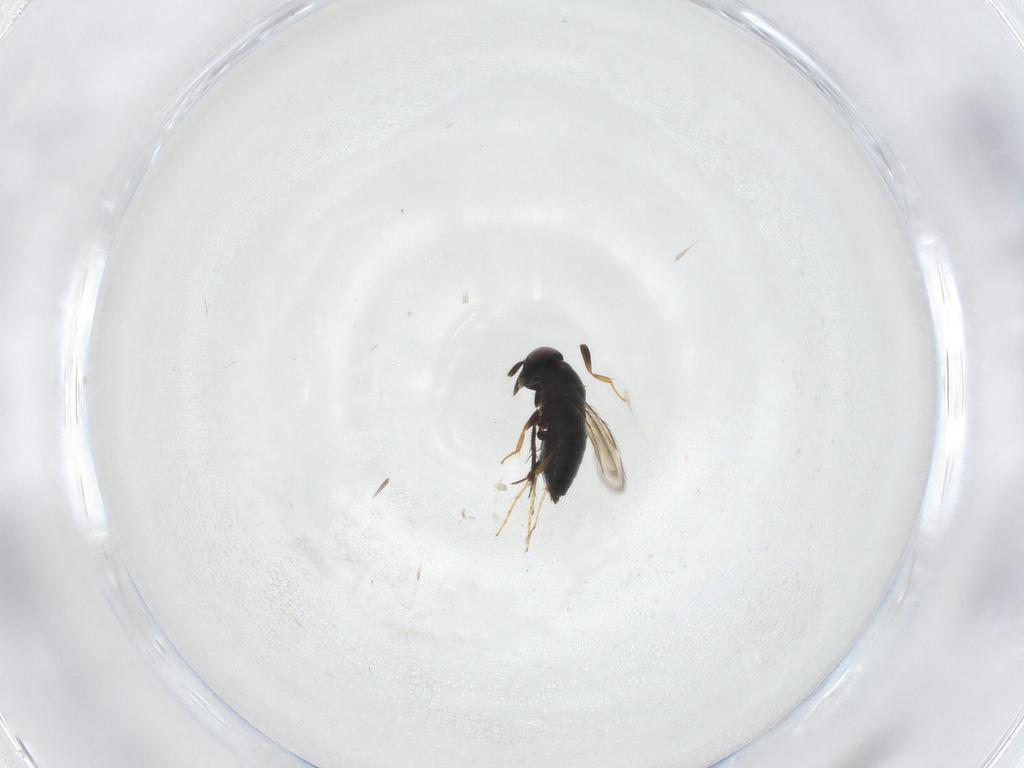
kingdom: Animalia
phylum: Arthropoda
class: Insecta
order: Hymenoptera
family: Signiphoridae
